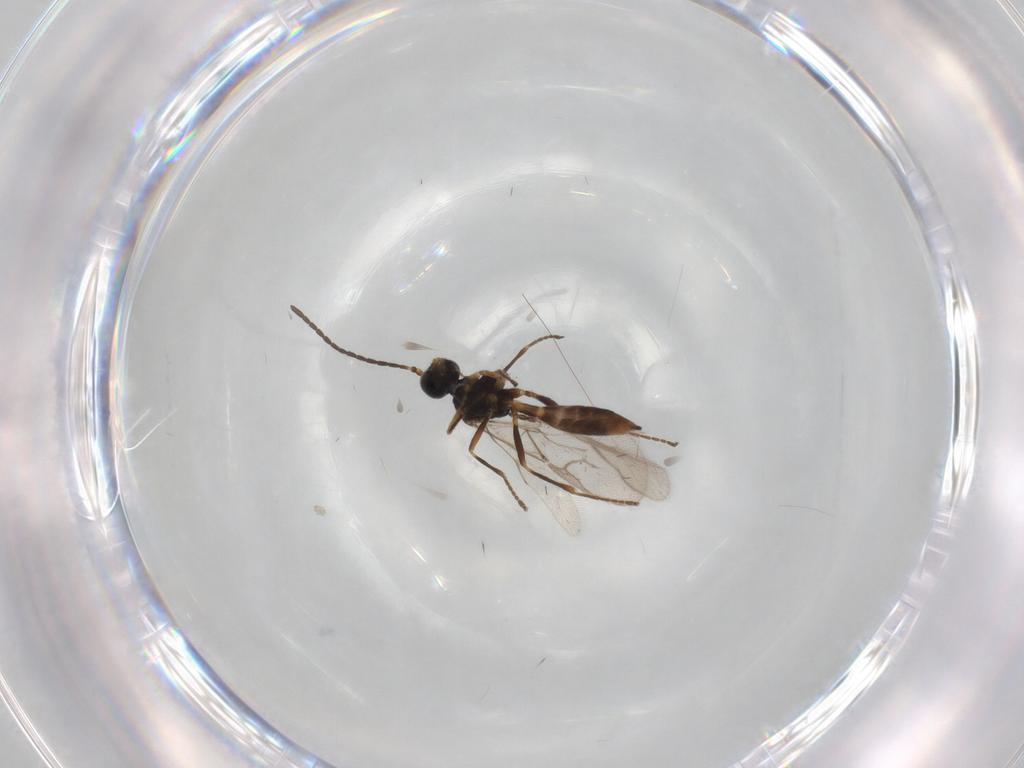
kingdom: Animalia
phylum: Arthropoda
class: Insecta
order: Hymenoptera
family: Braconidae
